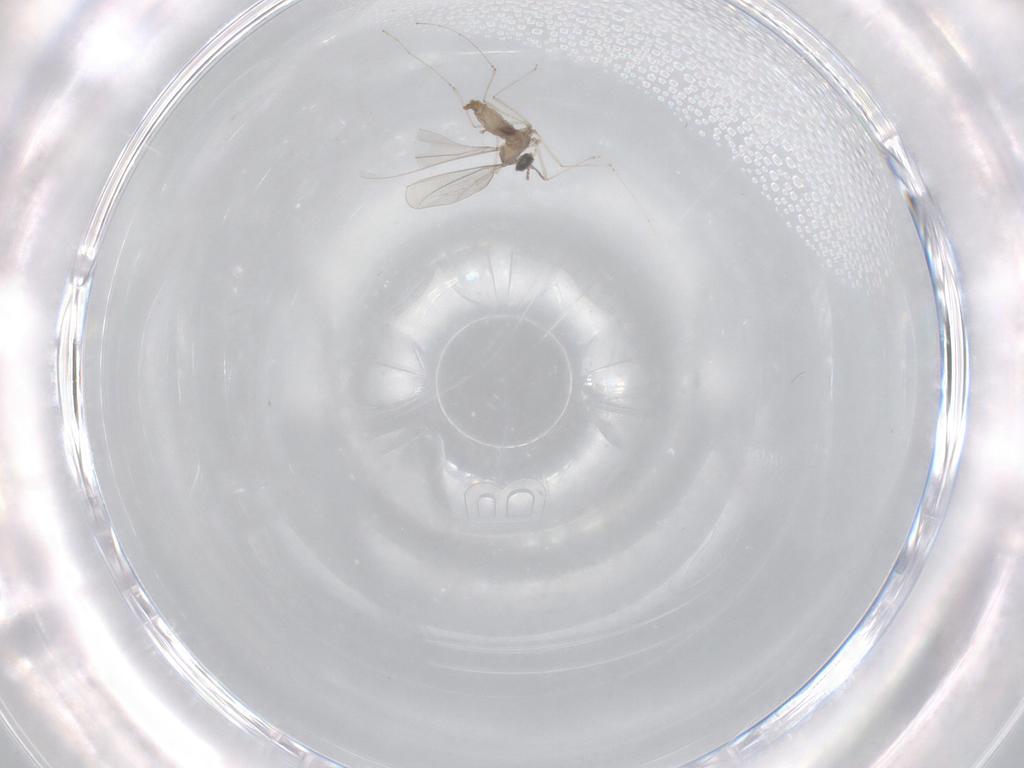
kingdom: Animalia
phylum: Arthropoda
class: Insecta
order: Diptera
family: Cecidomyiidae
